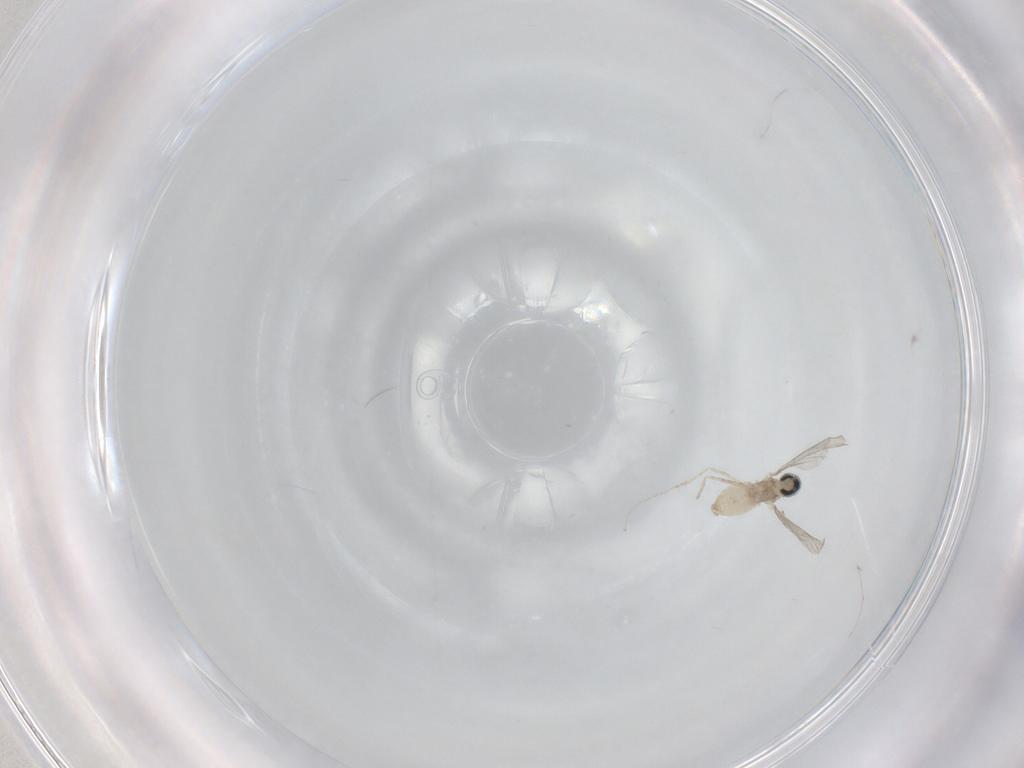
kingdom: Animalia
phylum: Arthropoda
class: Insecta
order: Diptera
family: Cecidomyiidae
